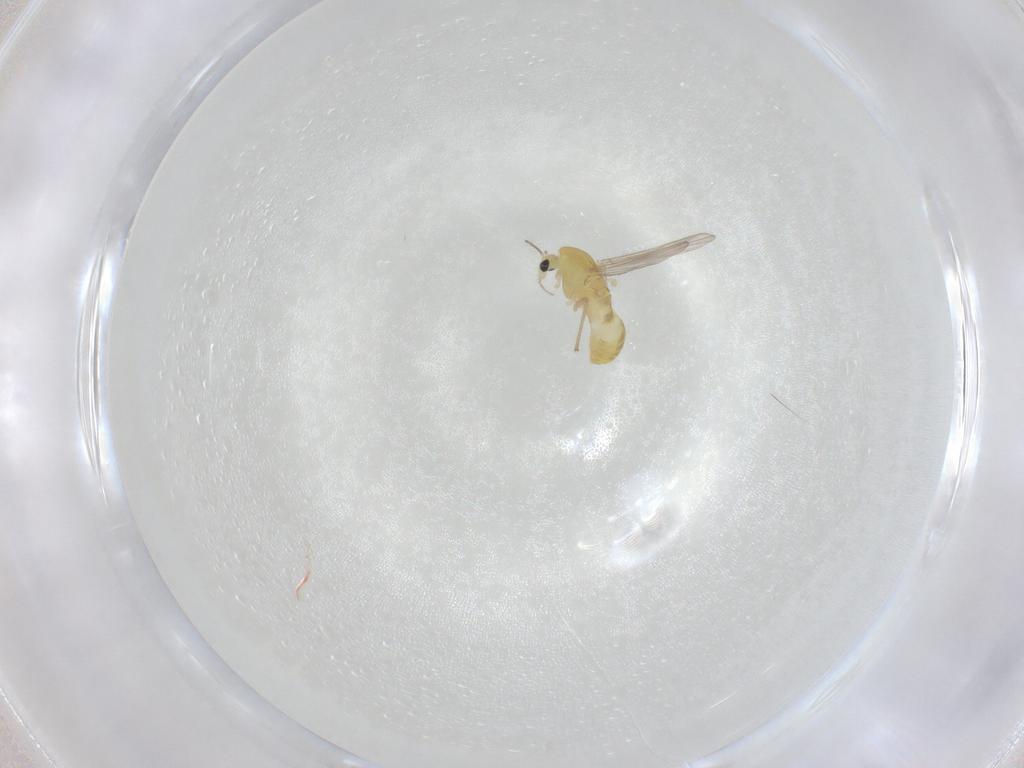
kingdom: Animalia
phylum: Arthropoda
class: Insecta
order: Diptera
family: Chironomidae
